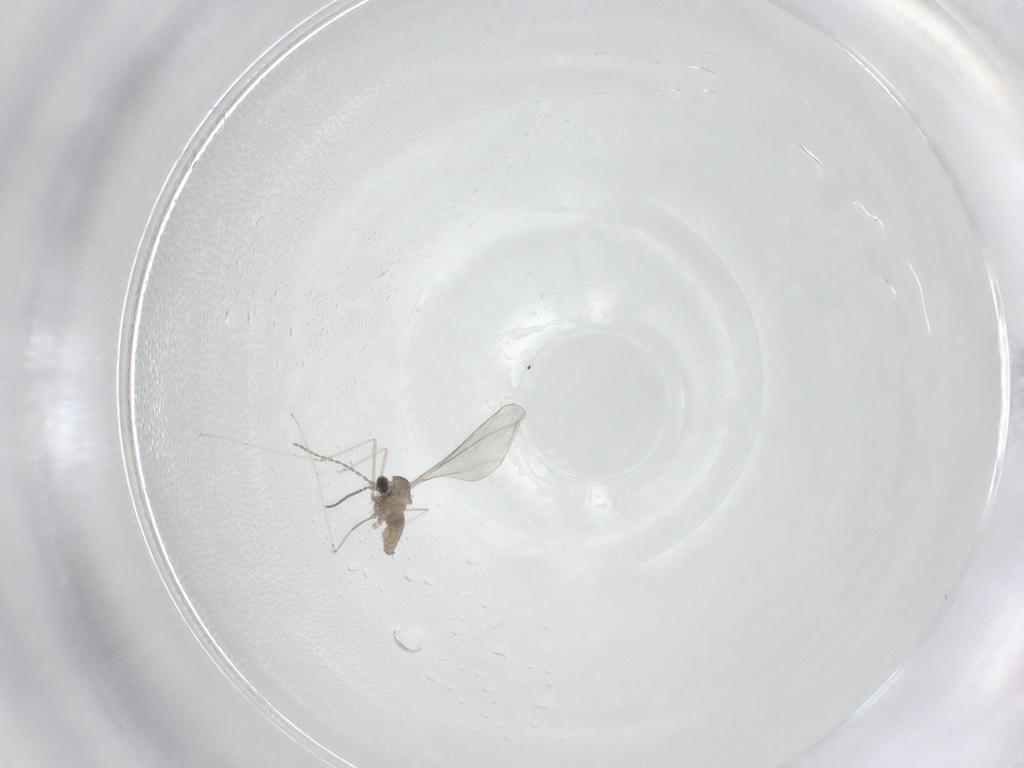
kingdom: Animalia
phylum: Arthropoda
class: Insecta
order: Diptera
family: Cecidomyiidae
